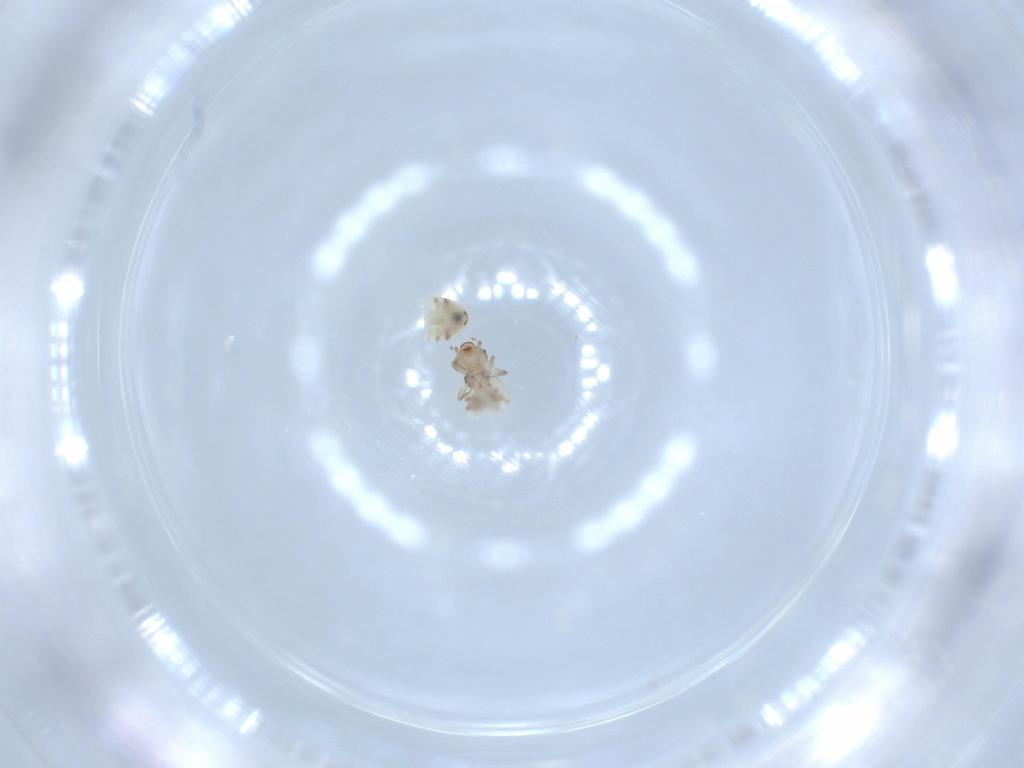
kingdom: Animalia
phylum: Arthropoda
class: Insecta
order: Psocodea
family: Liposcelididae
